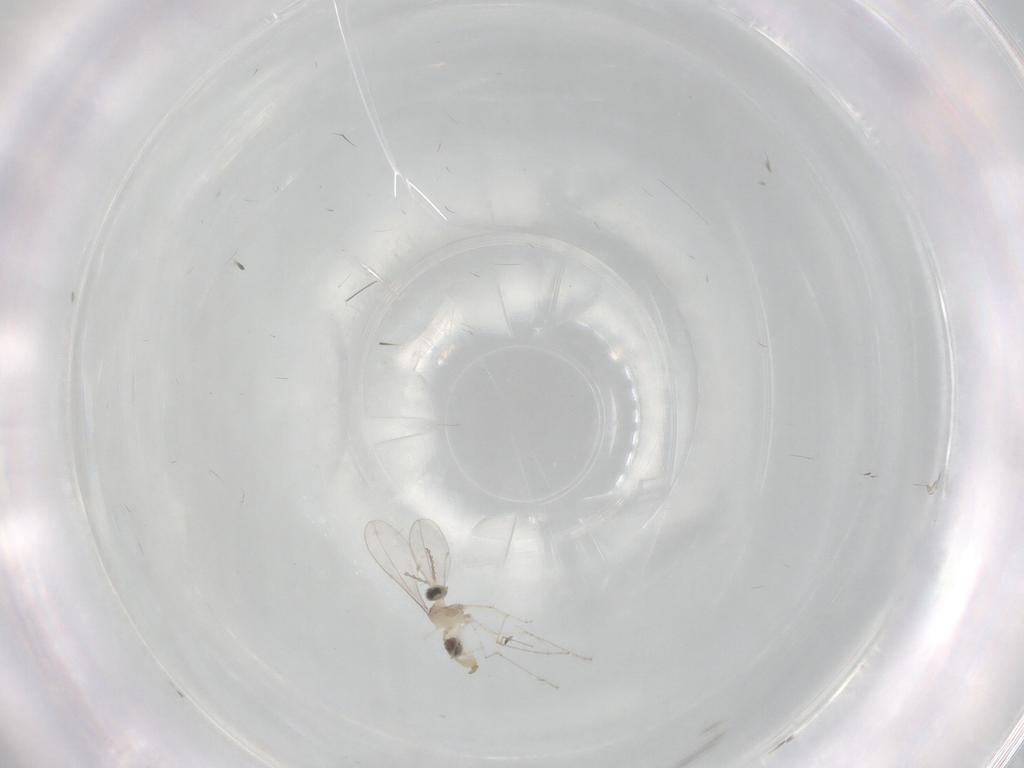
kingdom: Animalia
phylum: Arthropoda
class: Insecta
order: Diptera
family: Cecidomyiidae
